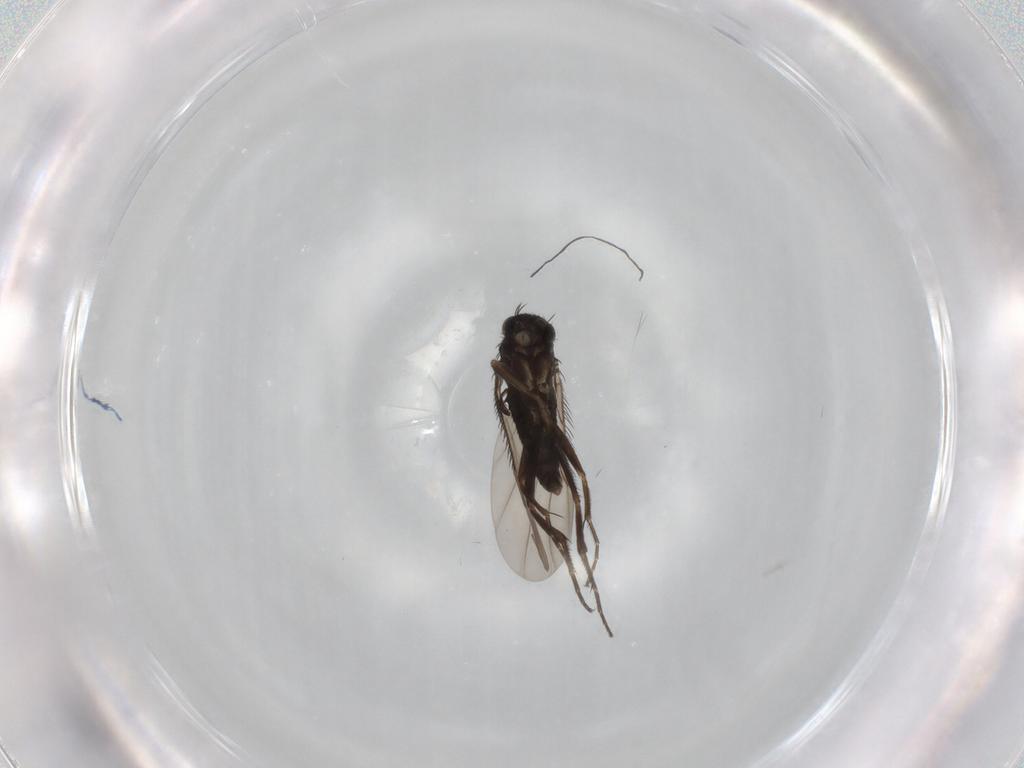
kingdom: Animalia
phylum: Arthropoda
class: Insecta
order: Diptera
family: Phoridae
